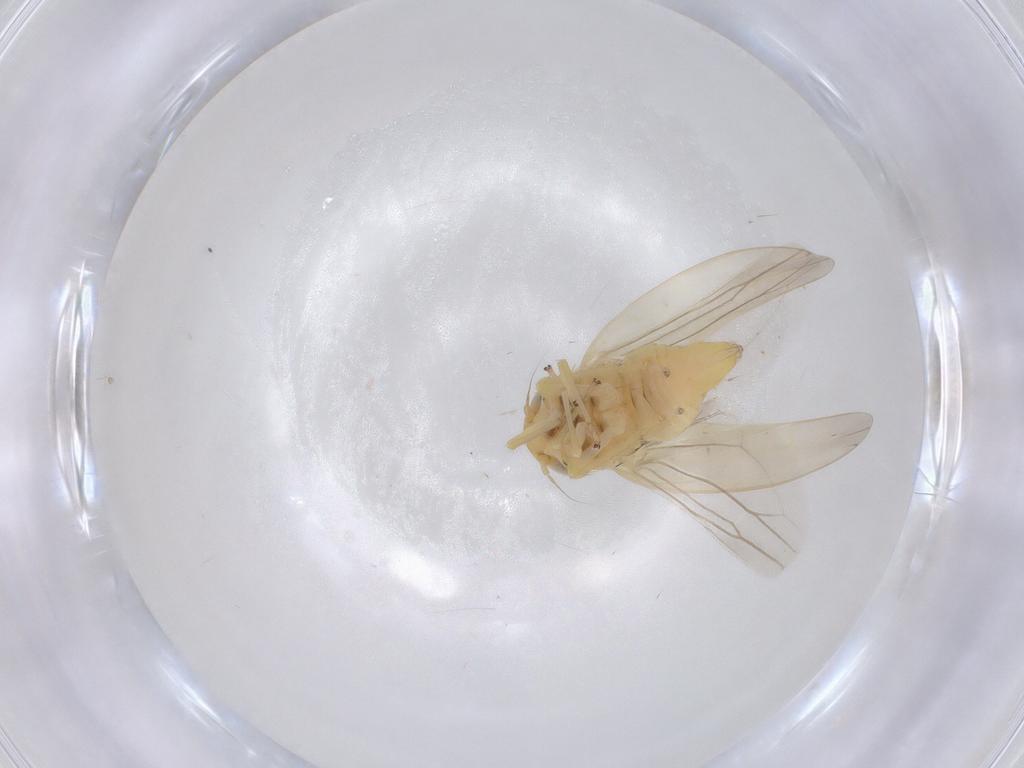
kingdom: Animalia
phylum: Arthropoda
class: Insecta
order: Hemiptera
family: Cicadellidae
